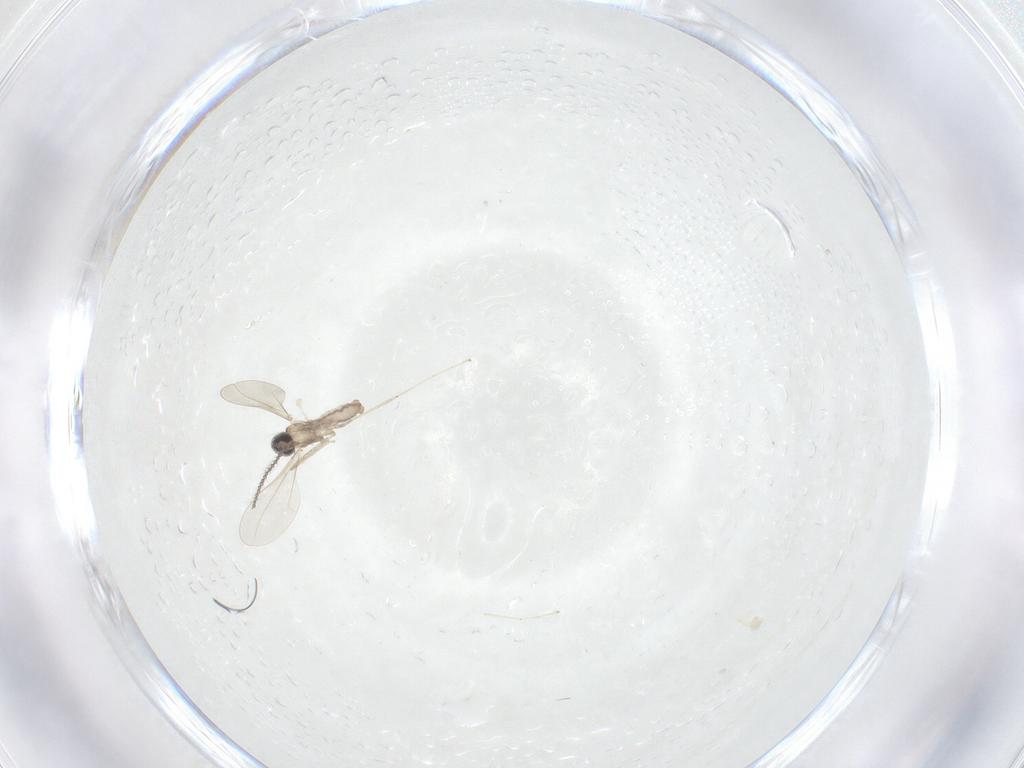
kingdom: Animalia
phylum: Arthropoda
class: Insecta
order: Diptera
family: Cecidomyiidae
